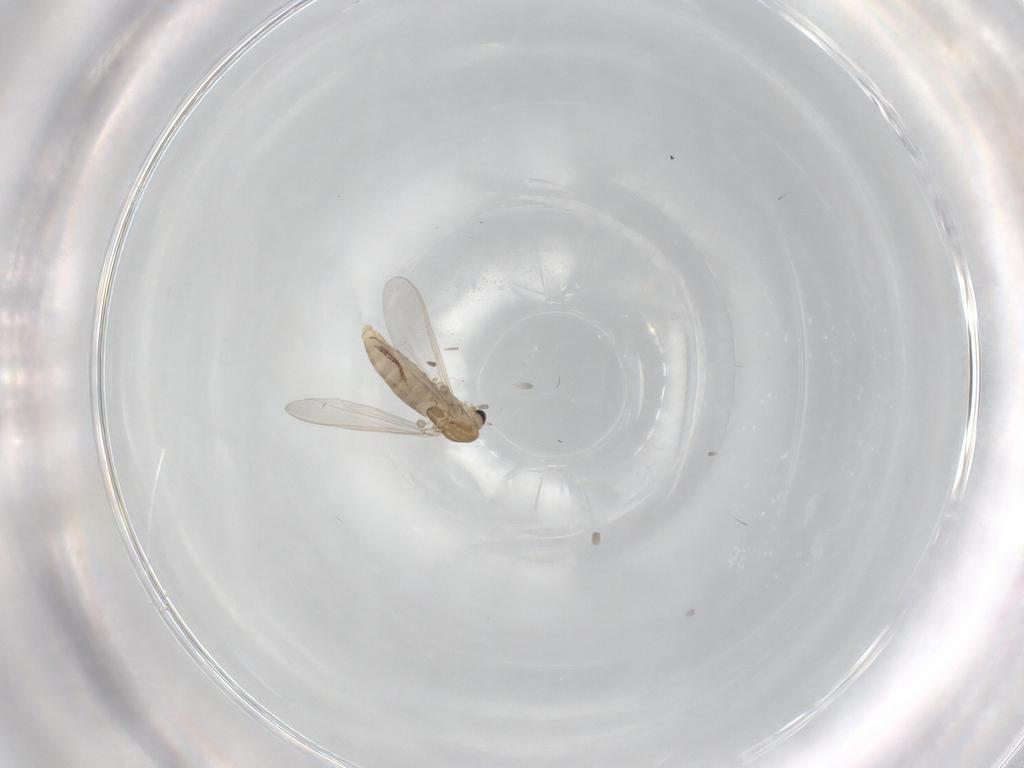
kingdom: Animalia
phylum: Arthropoda
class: Insecta
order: Diptera
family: Chironomidae
